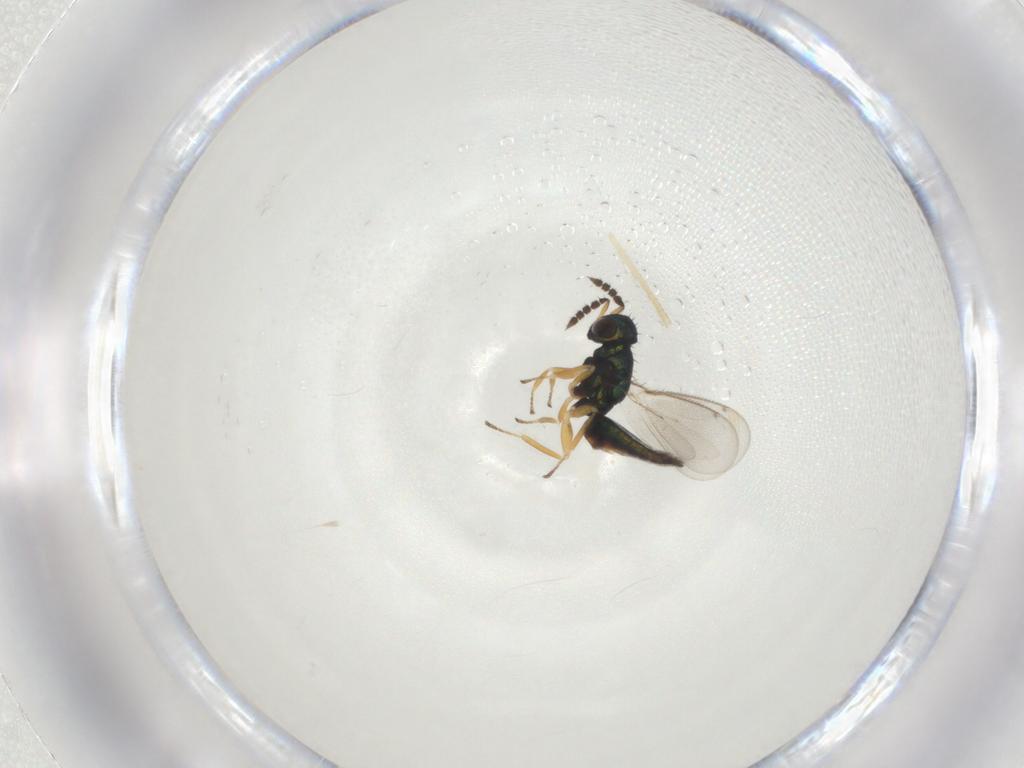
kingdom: Animalia
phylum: Arthropoda
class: Insecta
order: Hymenoptera
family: Eulophidae
